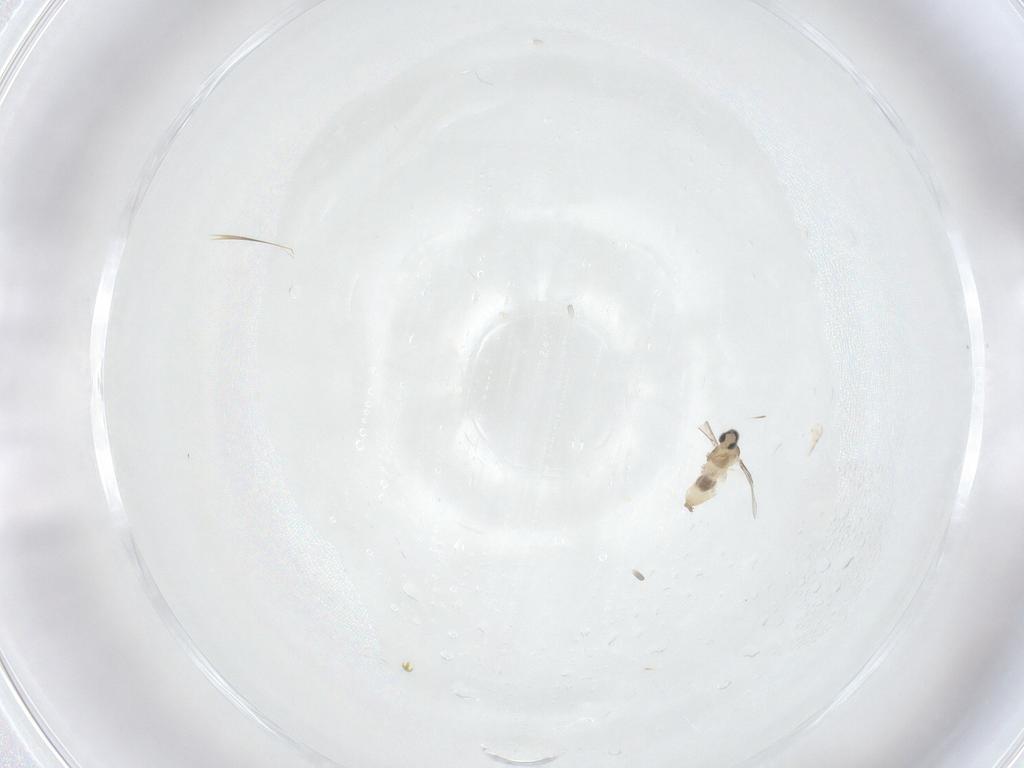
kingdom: Animalia
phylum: Arthropoda
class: Insecta
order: Diptera
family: Cecidomyiidae
